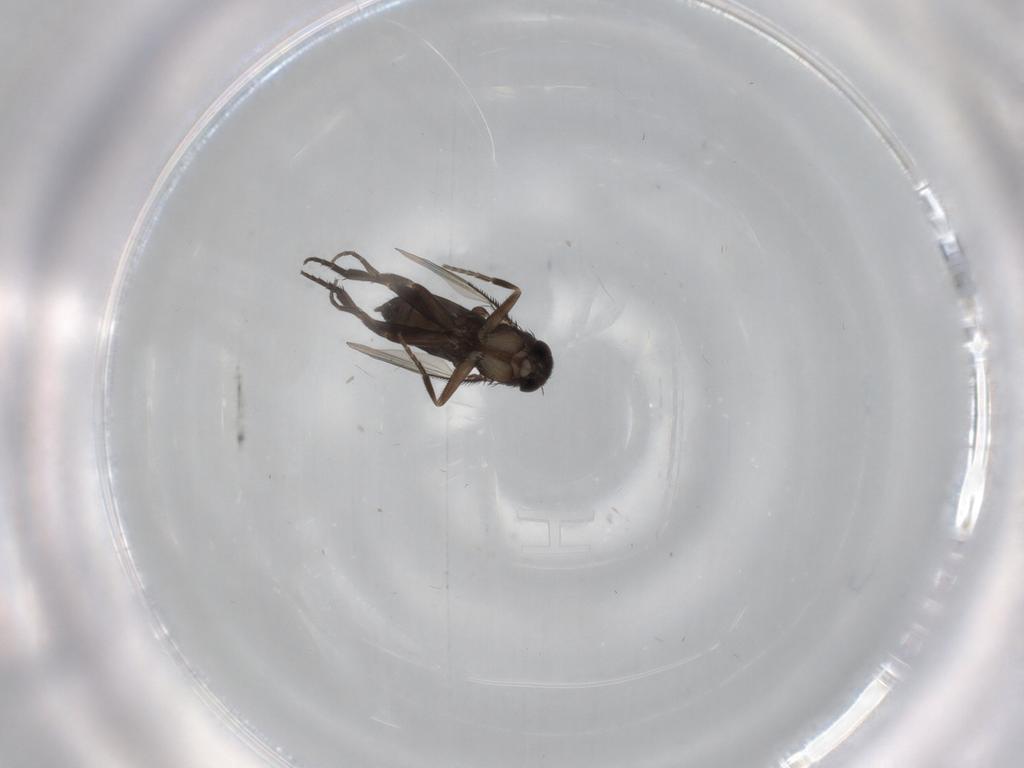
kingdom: Animalia
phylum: Arthropoda
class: Insecta
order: Diptera
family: Phoridae
